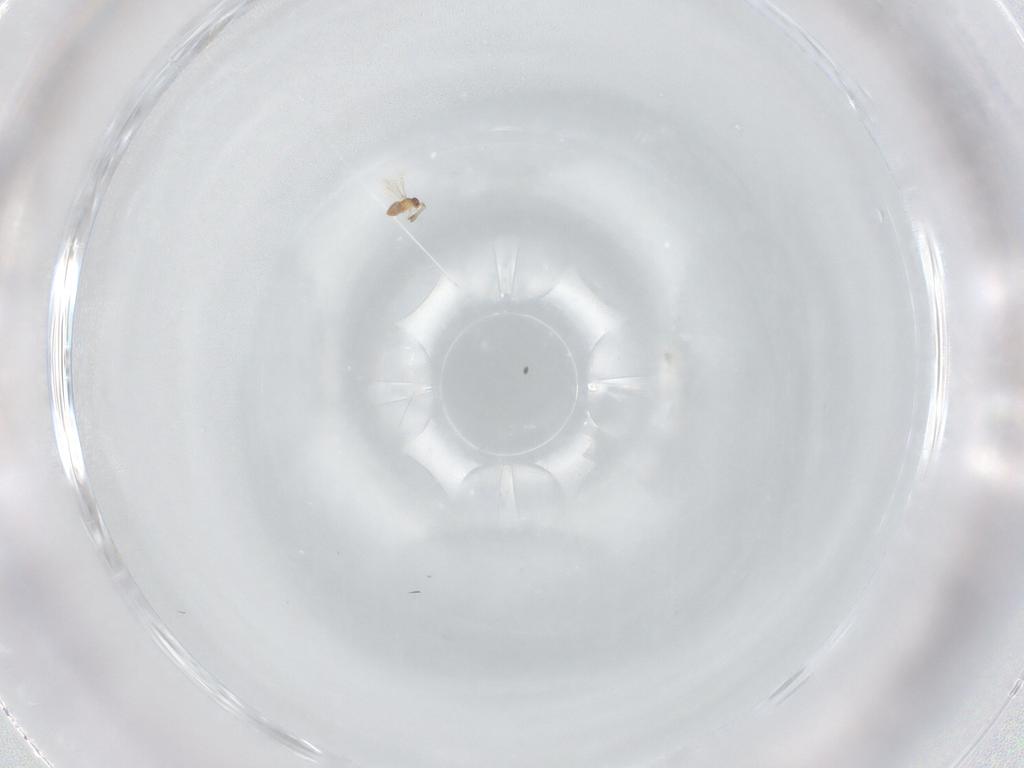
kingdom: Animalia
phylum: Arthropoda
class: Insecta
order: Hymenoptera
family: Mymaridae
